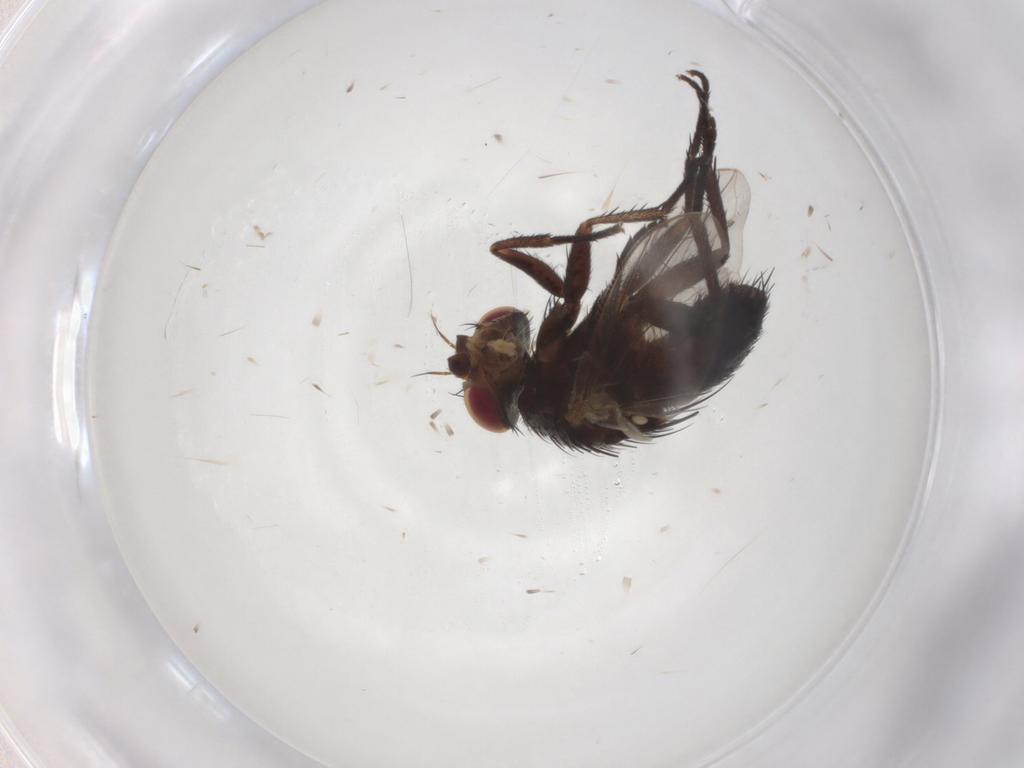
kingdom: Animalia
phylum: Arthropoda
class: Insecta
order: Diptera
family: Tachinidae
